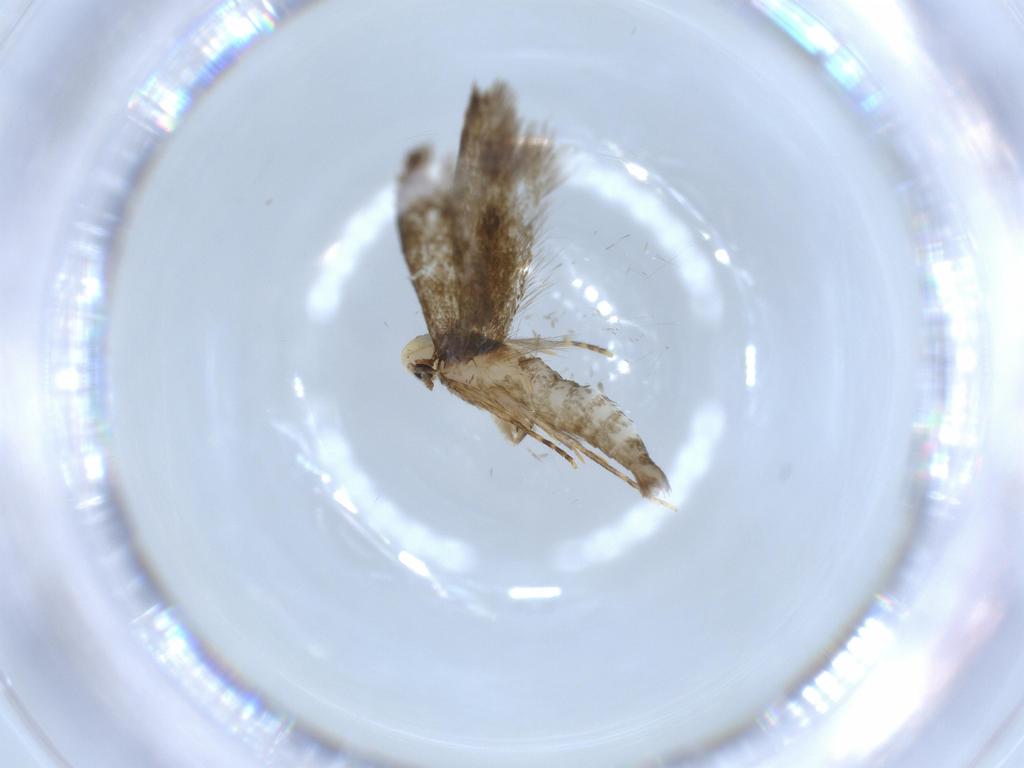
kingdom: Animalia
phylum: Arthropoda
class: Insecta
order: Lepidoptera
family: Tineidae
